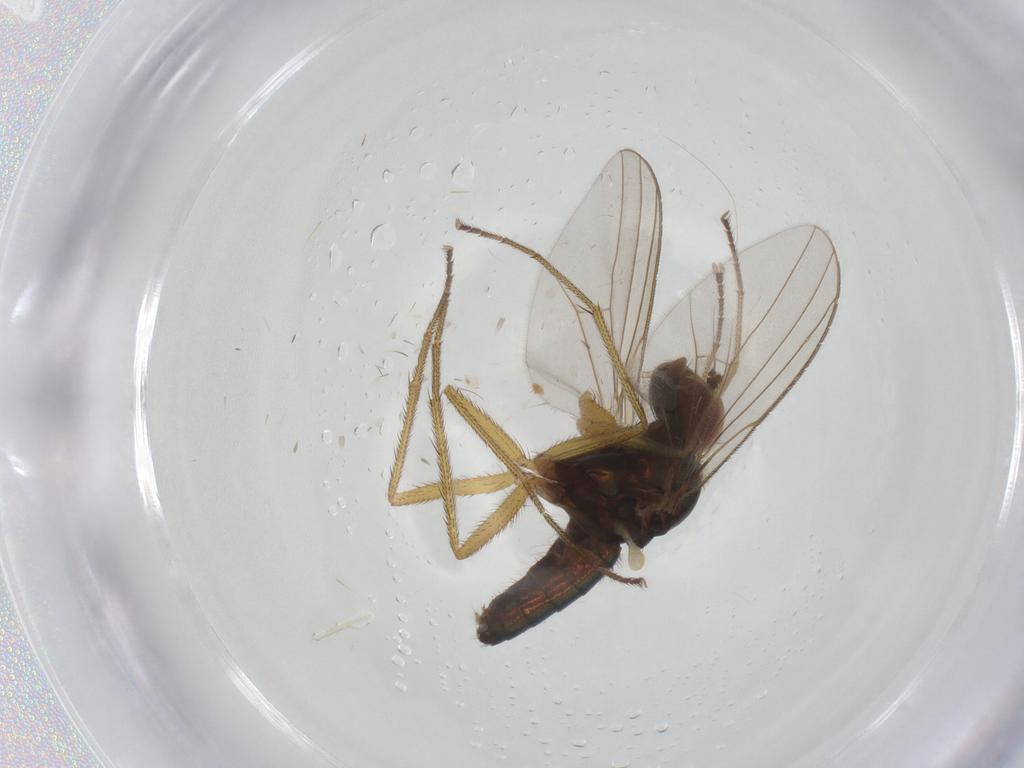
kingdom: Animalia
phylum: Arthropoda
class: Insecta
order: Diptera
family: Dolichopodidae
